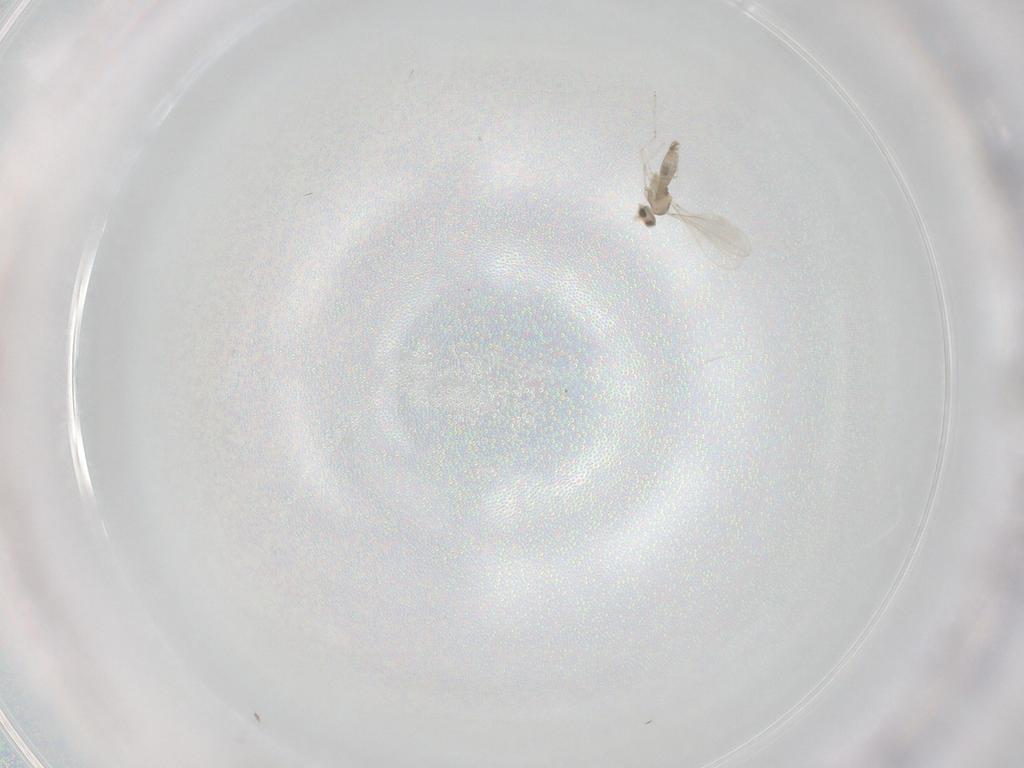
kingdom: Animalia
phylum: Arthropoda
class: Insecta
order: Diptera
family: Cecidomyiidae
